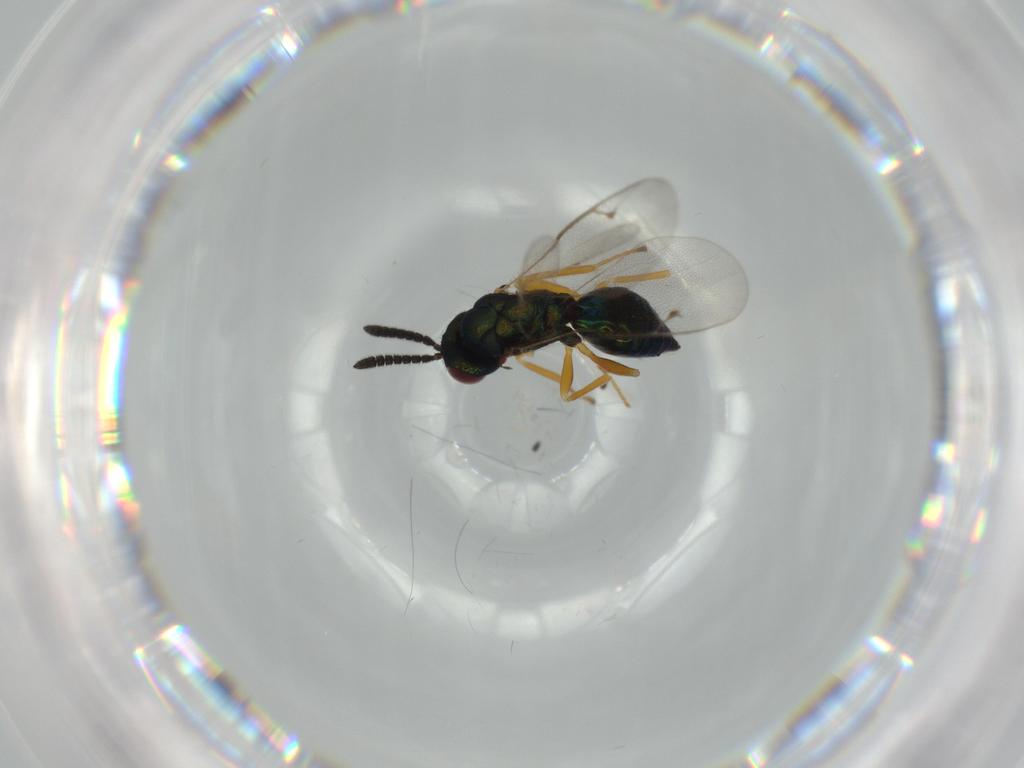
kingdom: Animalia
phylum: Arthropoda
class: Insecta
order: Hymenoptera
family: Pteromalidae
